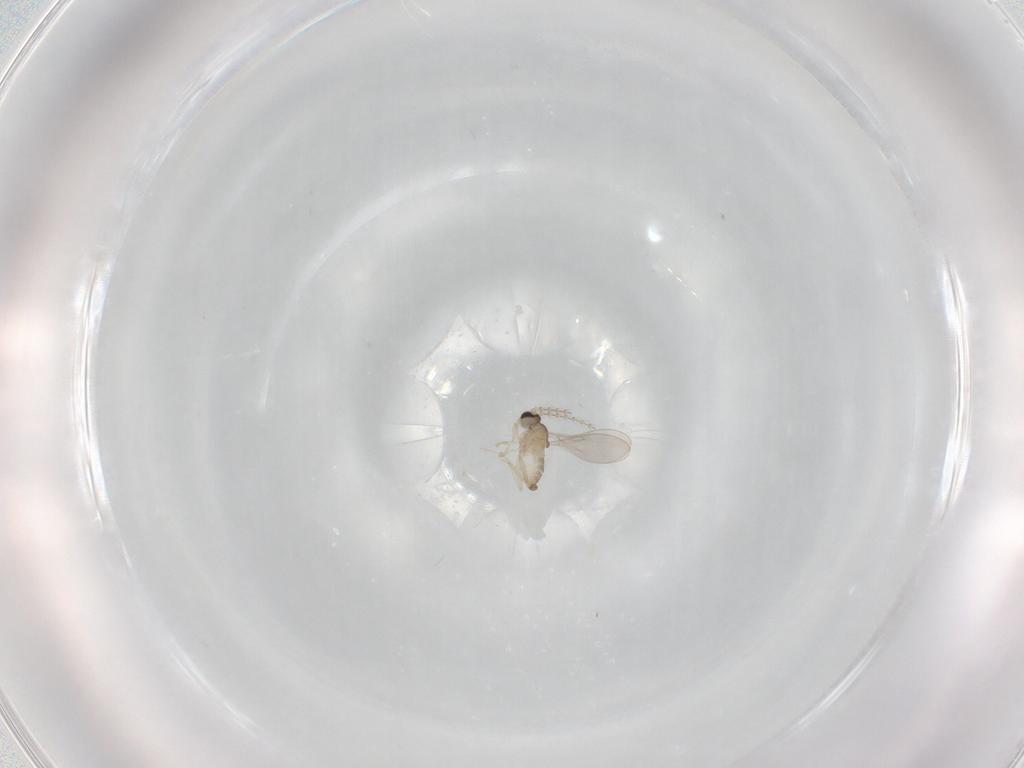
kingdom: Animalia
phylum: Arthropoda
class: Insecta
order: Diptera
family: Cecidomyiidae
